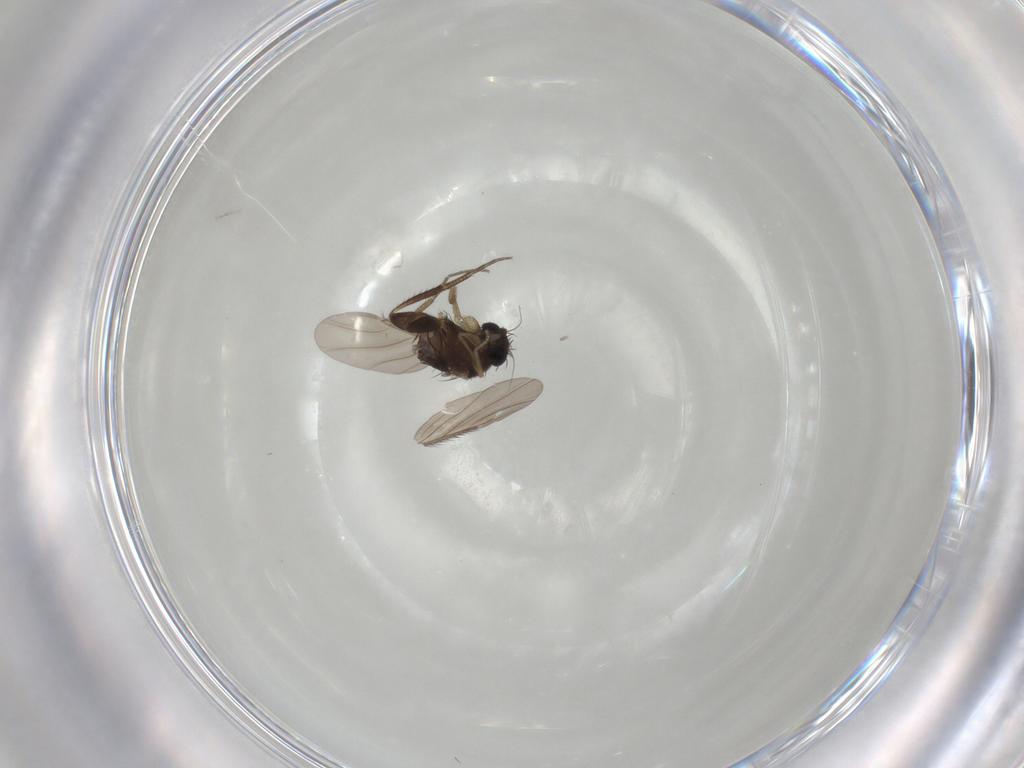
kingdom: Animalia
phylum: Arthropoda
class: Insecta
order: Diptera
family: Phoridae
